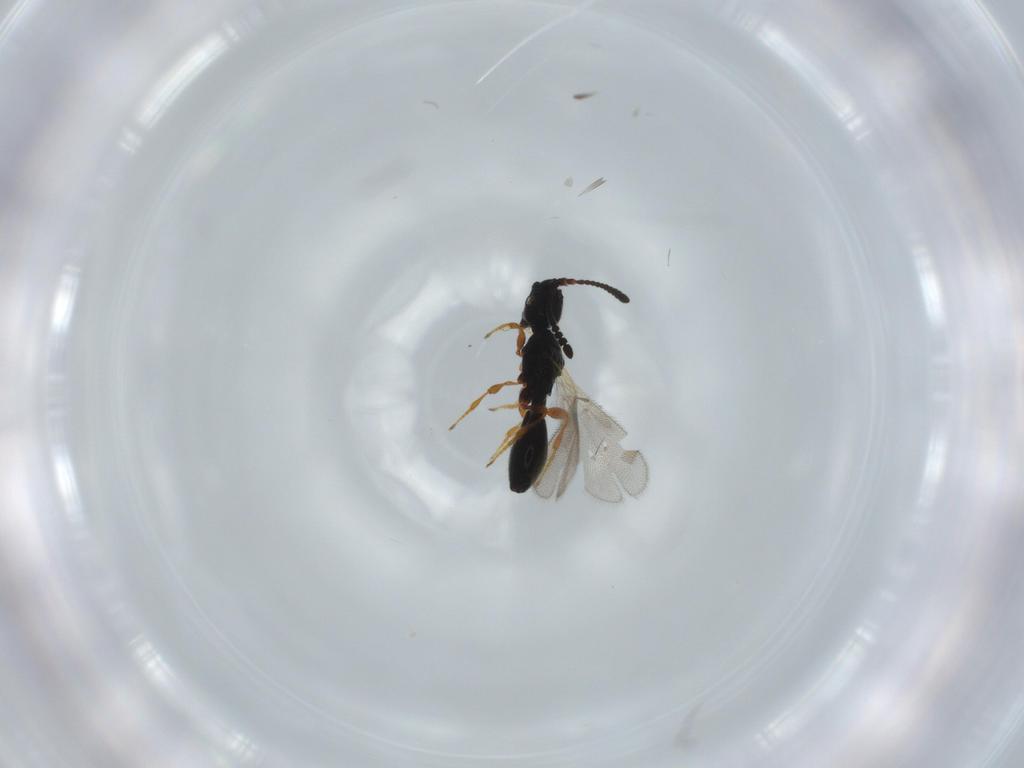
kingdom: Animalia
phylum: Arthropoda
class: Insecta
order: Hymenoptera
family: Diapriidae
